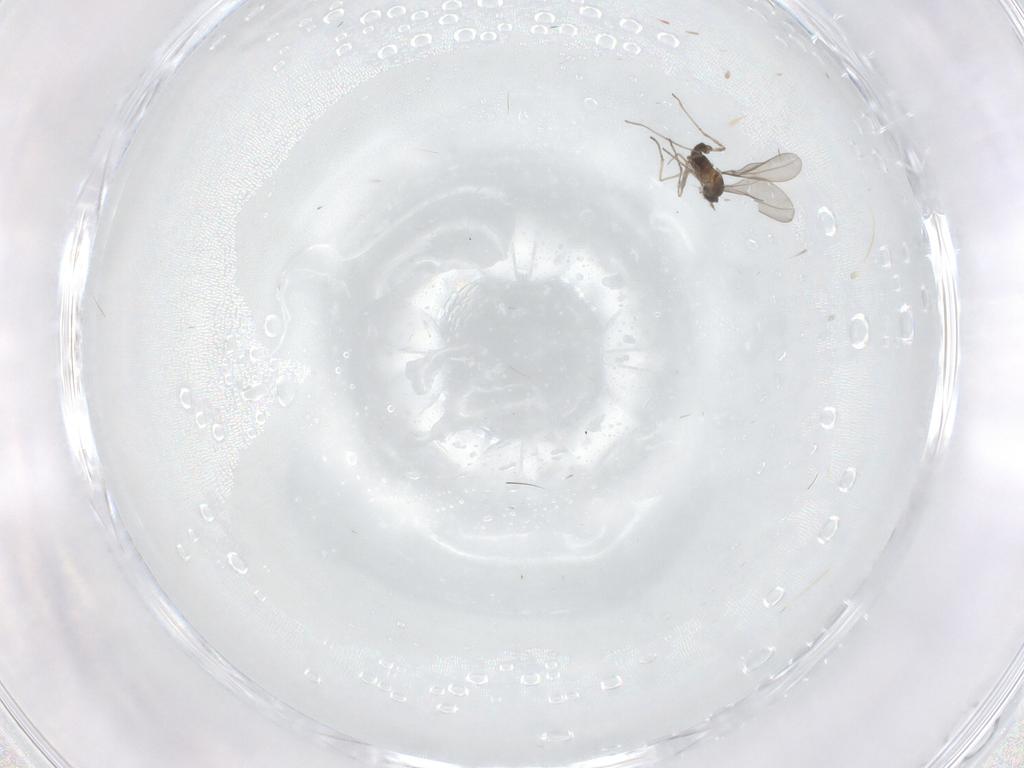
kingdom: Animalia
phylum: Arthropoda
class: Insecta
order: Diptera
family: Cecidomyiidae
